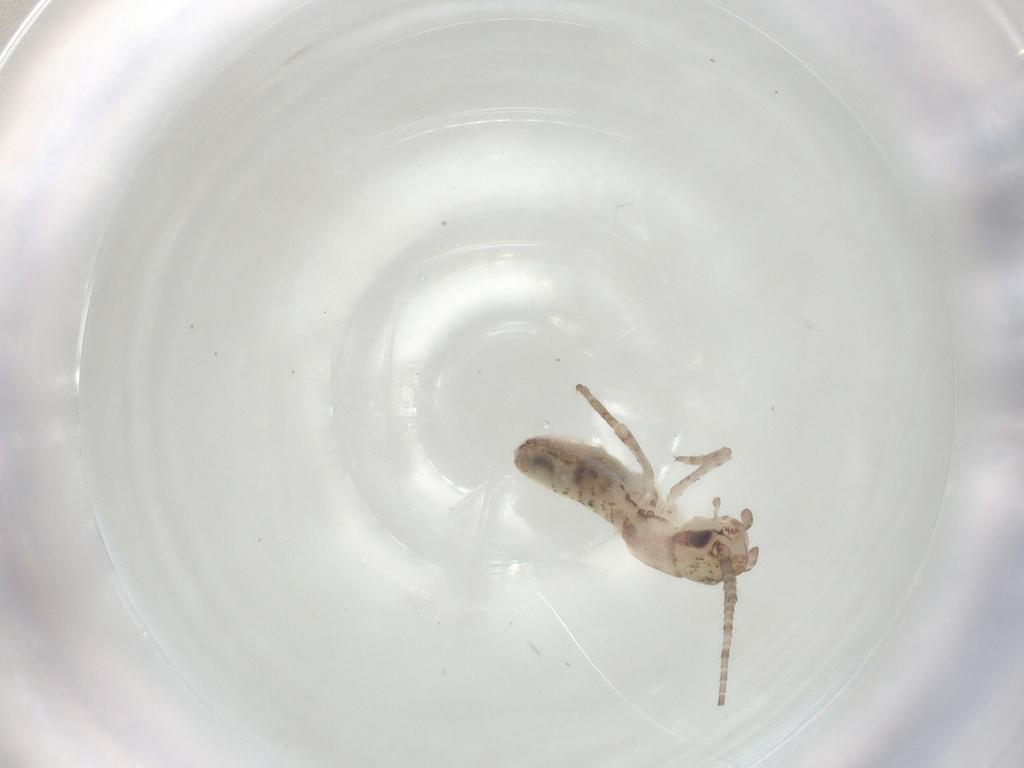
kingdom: Animalia
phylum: Arthropoda
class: Insecta
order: Orthoptera
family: Mogoplistidae
